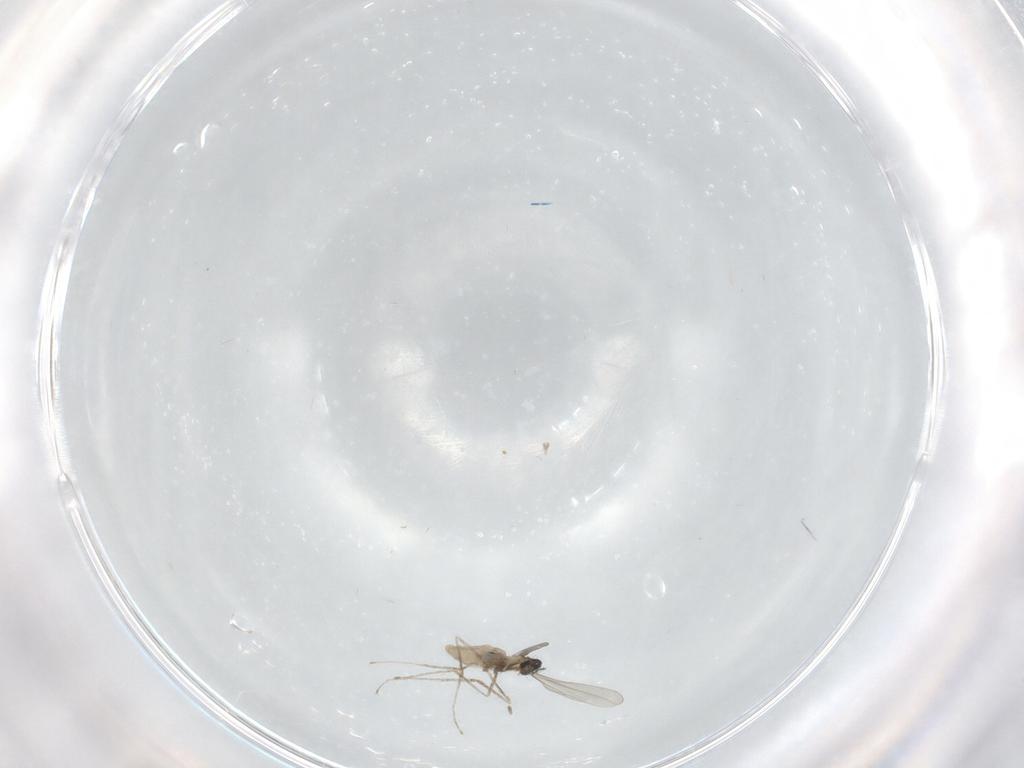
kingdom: Animalia
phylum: Arthropoda
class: Insecta
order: Diptera
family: Cecidomyiidae
